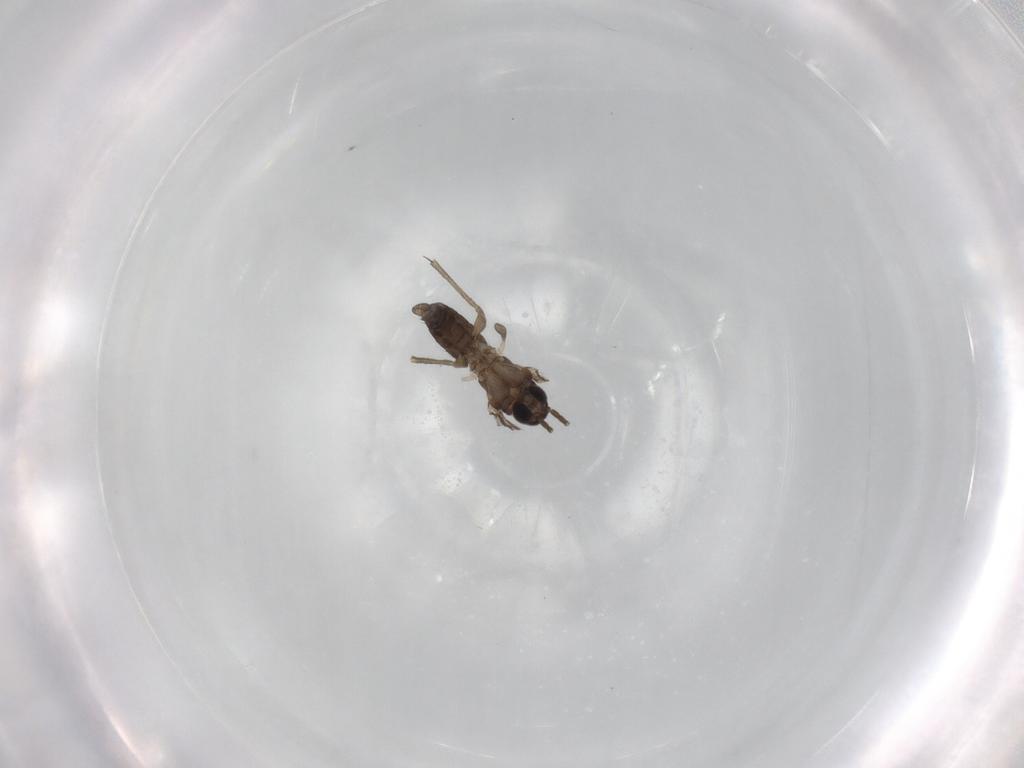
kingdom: Animalia
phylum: Arthropoda
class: Insecta
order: Diptera
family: Sciaridae
